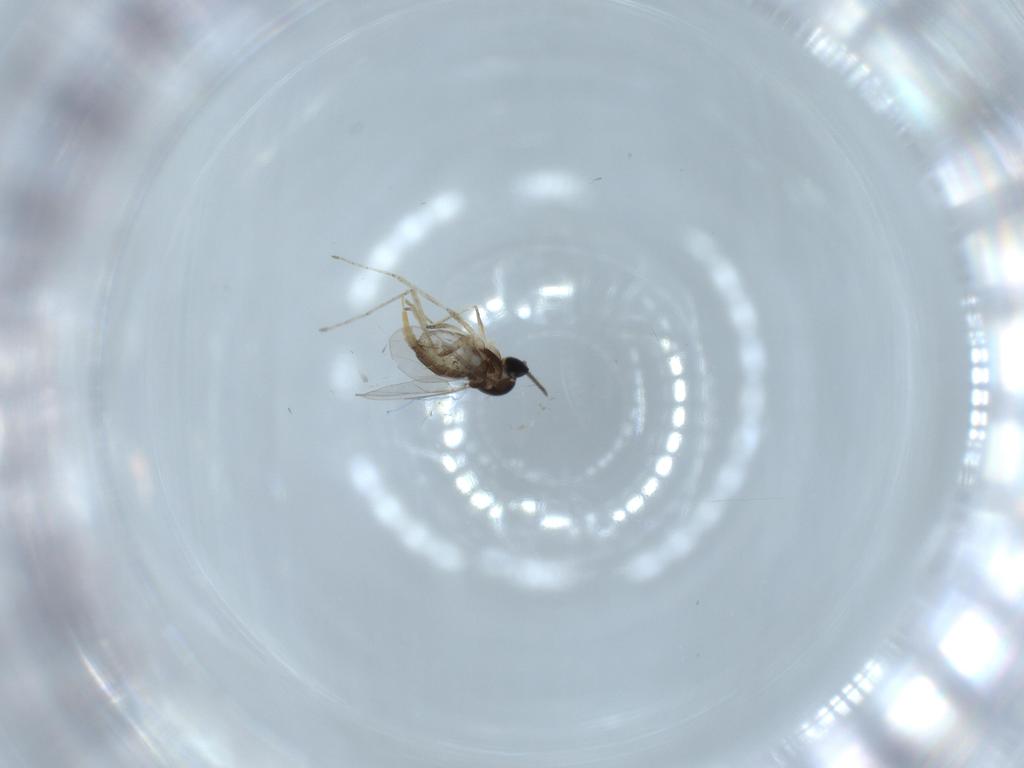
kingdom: Animalia
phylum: Arthropoda
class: Insecta
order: Diptera
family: Cecidomyiidae
